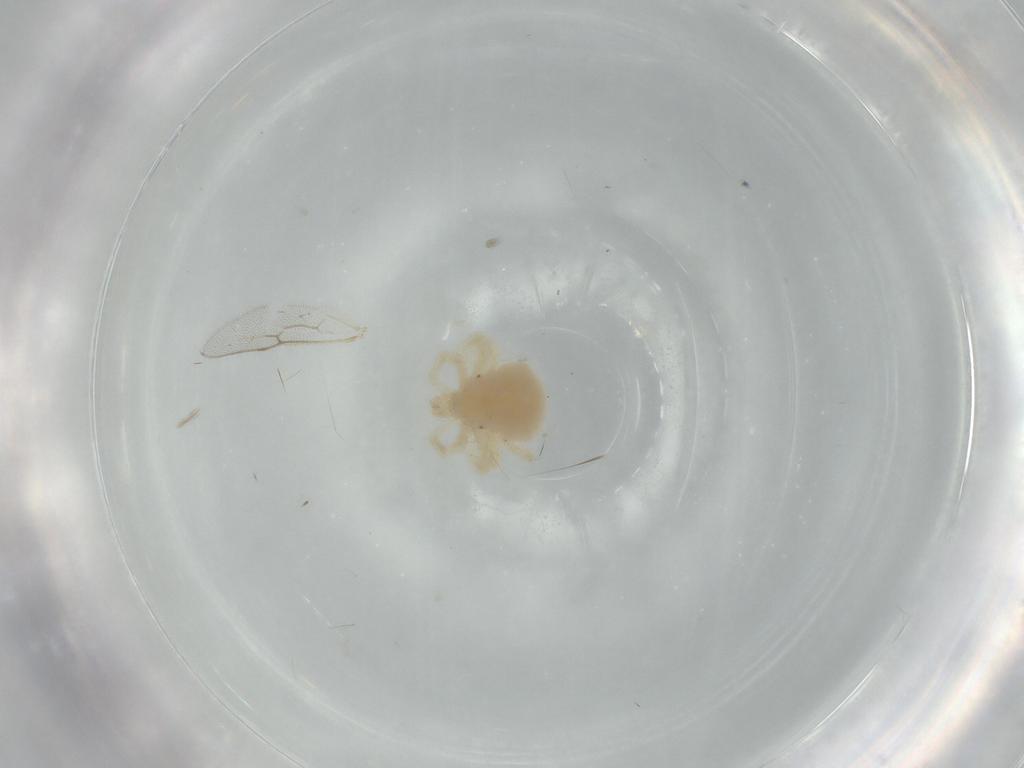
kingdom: Animalia
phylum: Arthropoda
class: Arachnida
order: Trombidiformes
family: Anystidae
